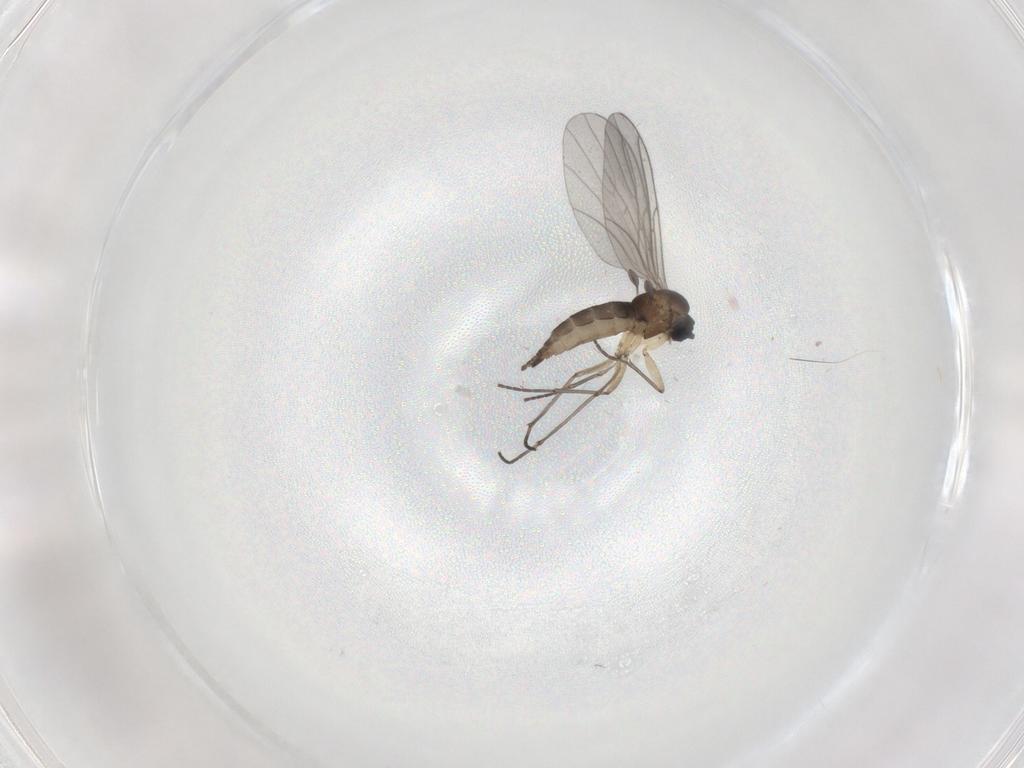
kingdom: Animalia
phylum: Arthropoda
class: Insecta
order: Diptera
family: Sciaridae
